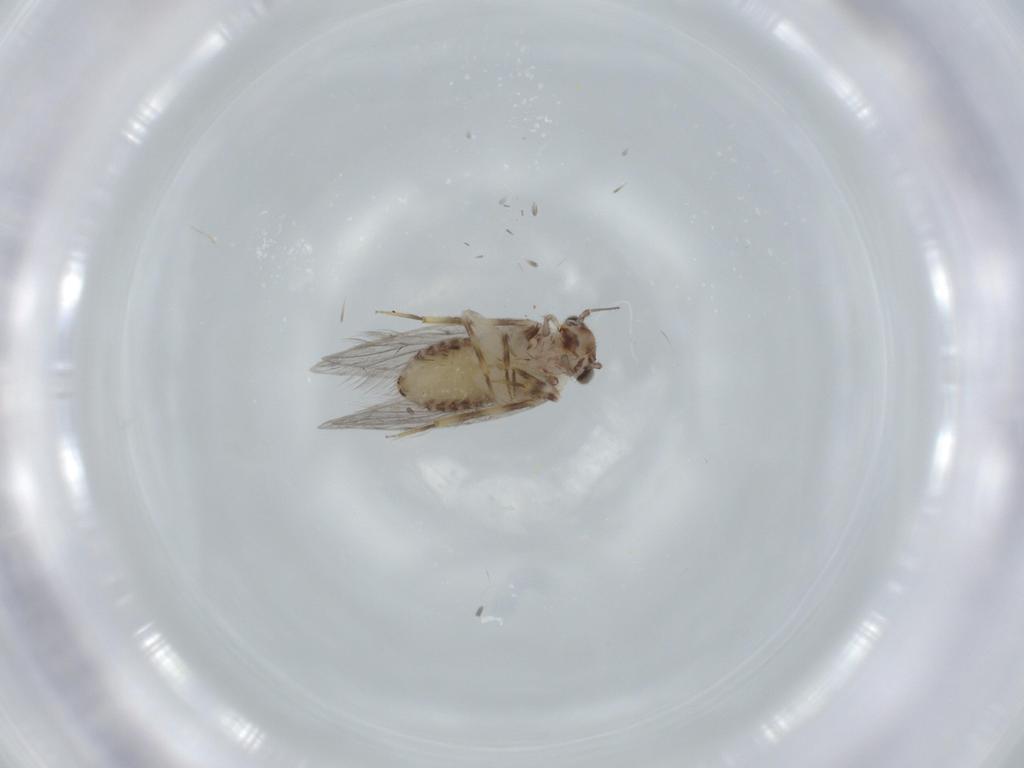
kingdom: Animalia
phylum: Arthropoda
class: Insecta
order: Psocodea
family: Lepidopsocidae
